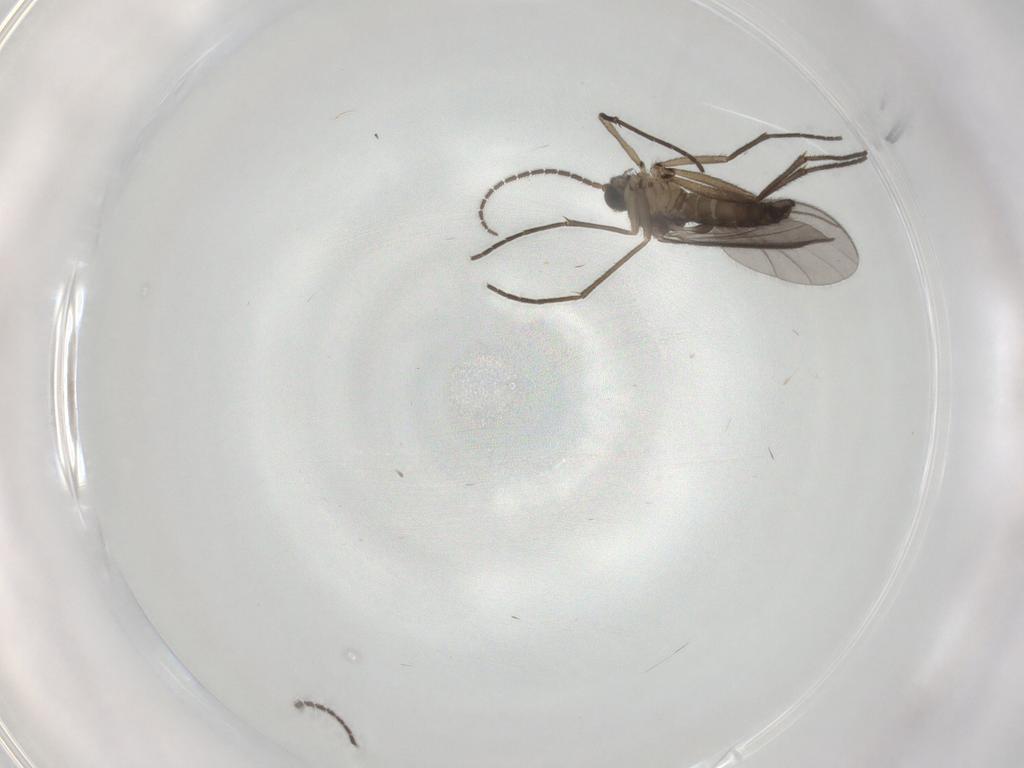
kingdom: Animalia
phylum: Arthropoda
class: Insecta
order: Diptera
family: Sciaridae
